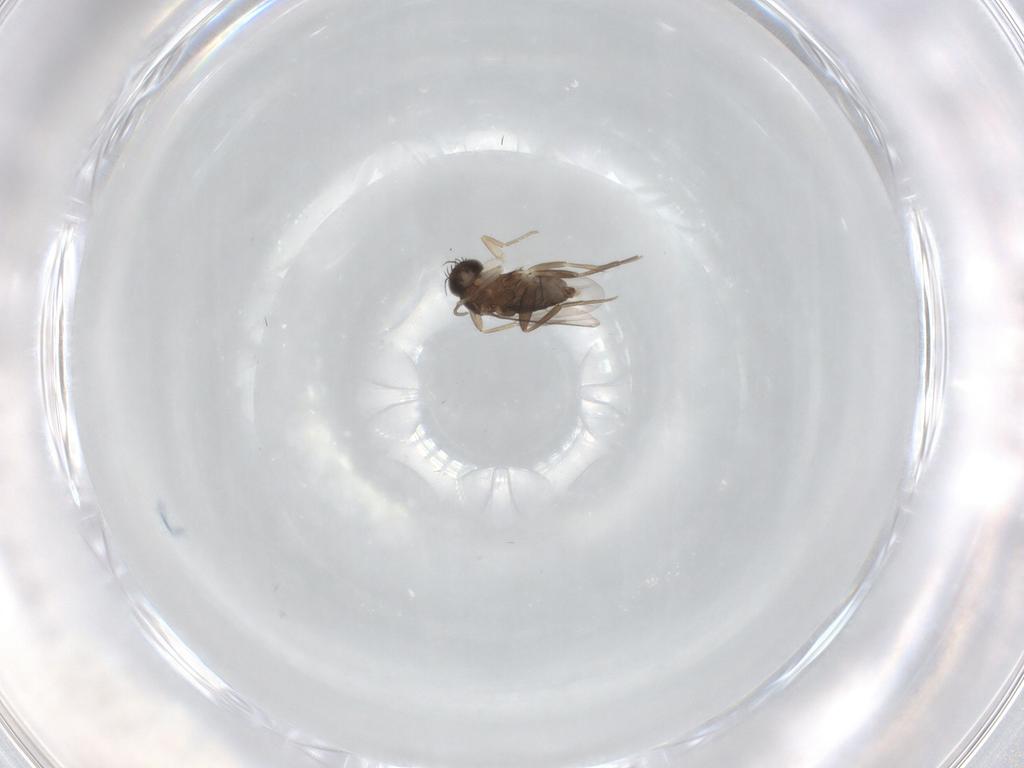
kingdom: Animalia
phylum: Arthropoda
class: Insecta
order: Diptera
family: Phoridae
